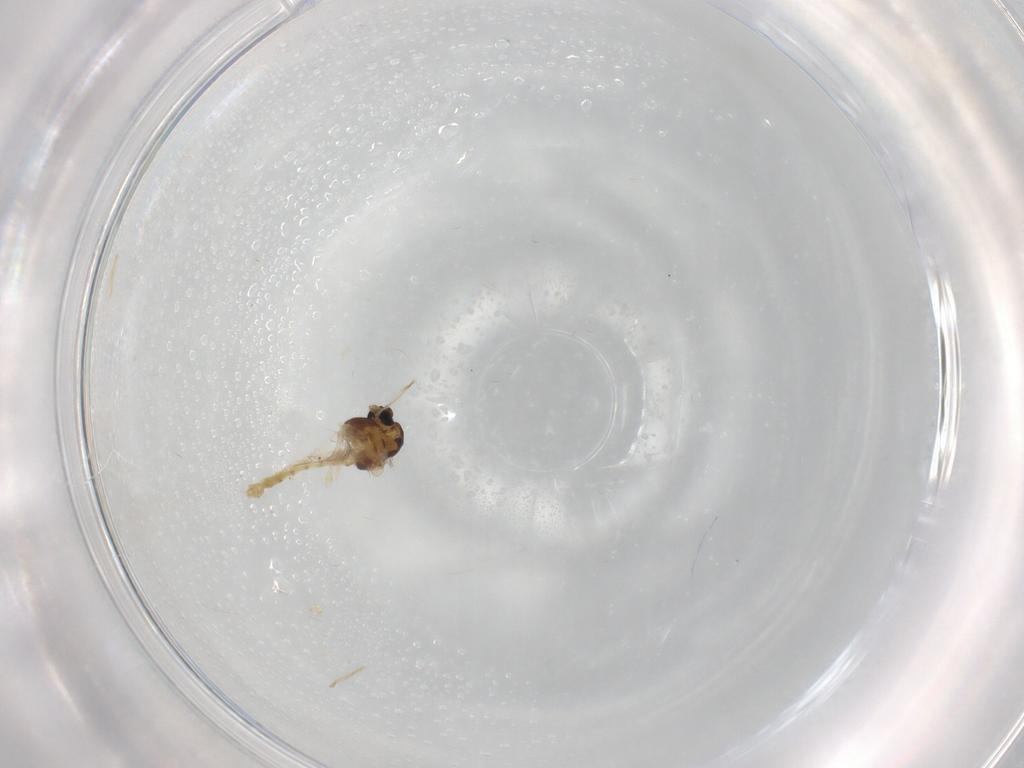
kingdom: Animalia
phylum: Arthropoda
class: Insecta
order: Diptera
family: Chironomidae
